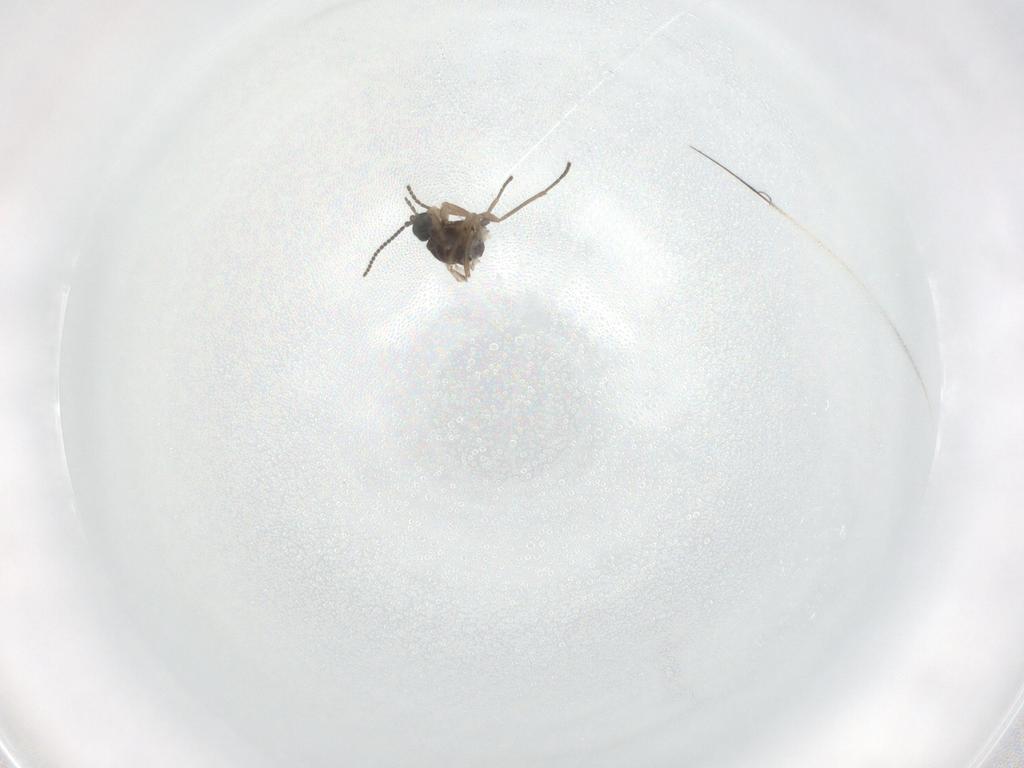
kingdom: Animalia
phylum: Arthropoda
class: Insecta
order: Diptera
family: Sciaridae
